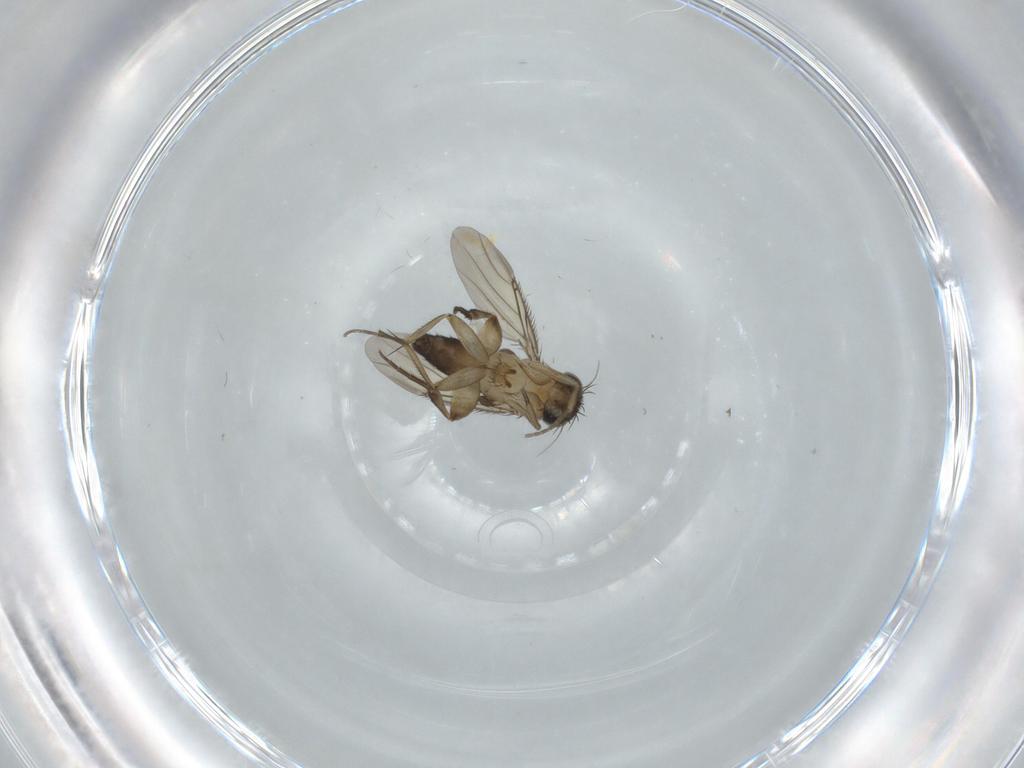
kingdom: Animalia
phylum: Arthropoda
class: Insecta
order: Diptera
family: Phoridae
